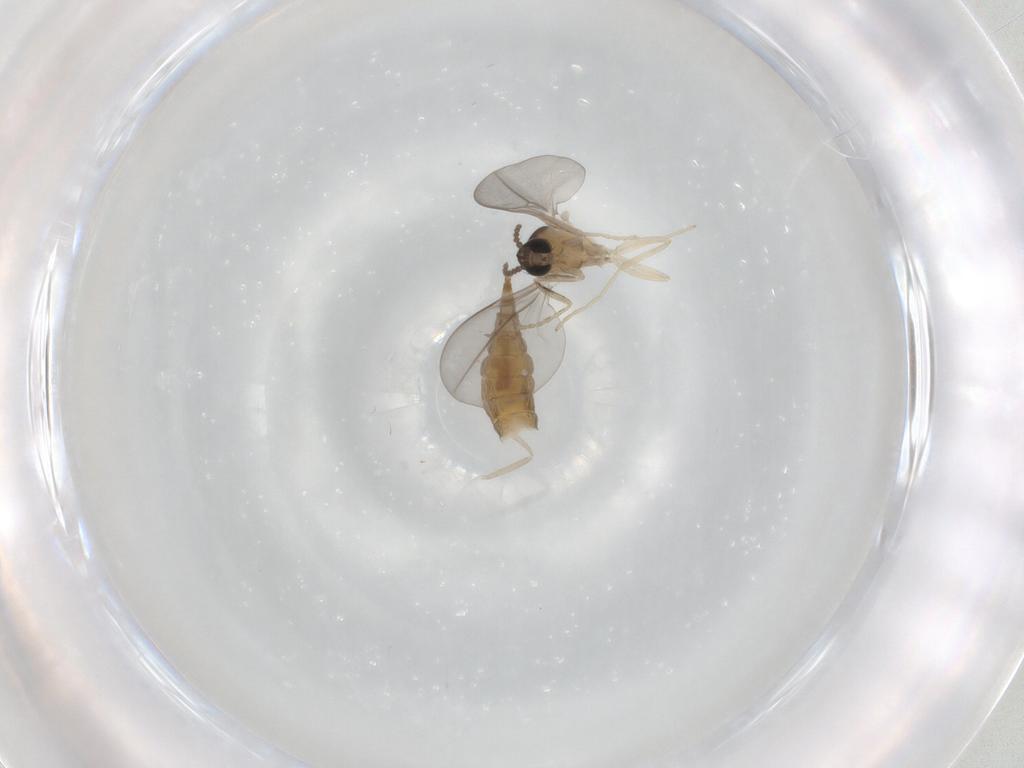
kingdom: Animalia
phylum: Arthropoda
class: Insecta
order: Diptera
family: Cecidomyiidae
